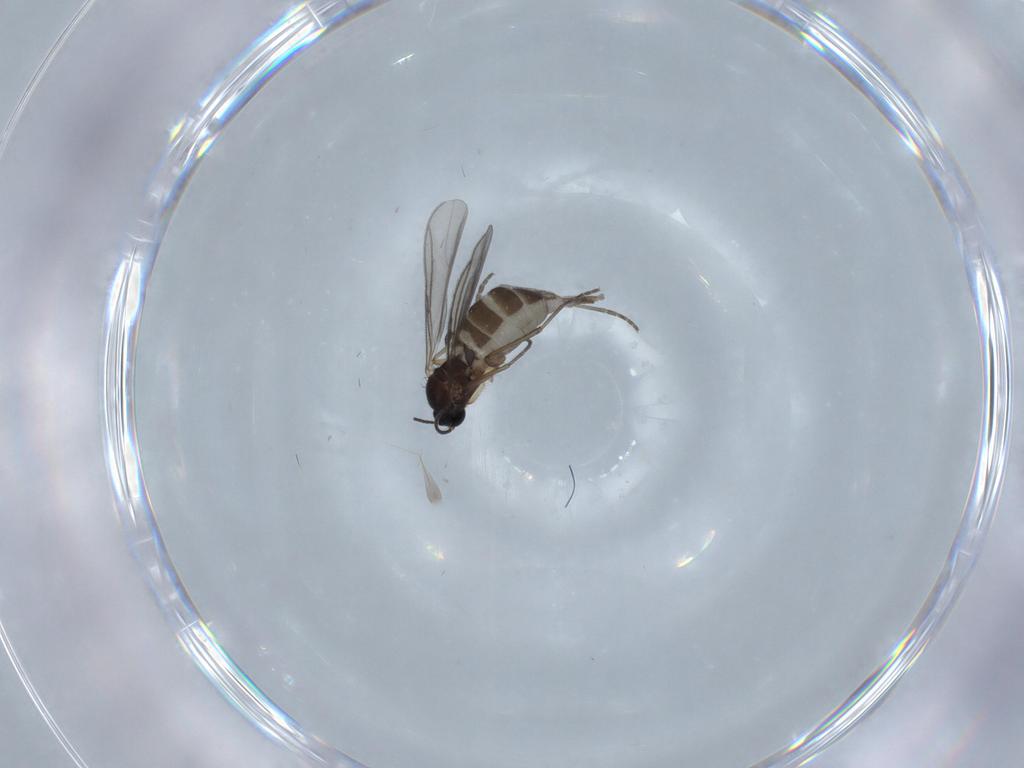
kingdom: Animalia
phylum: Arthropoda
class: Insecta
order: Diptera
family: Sciaridae
